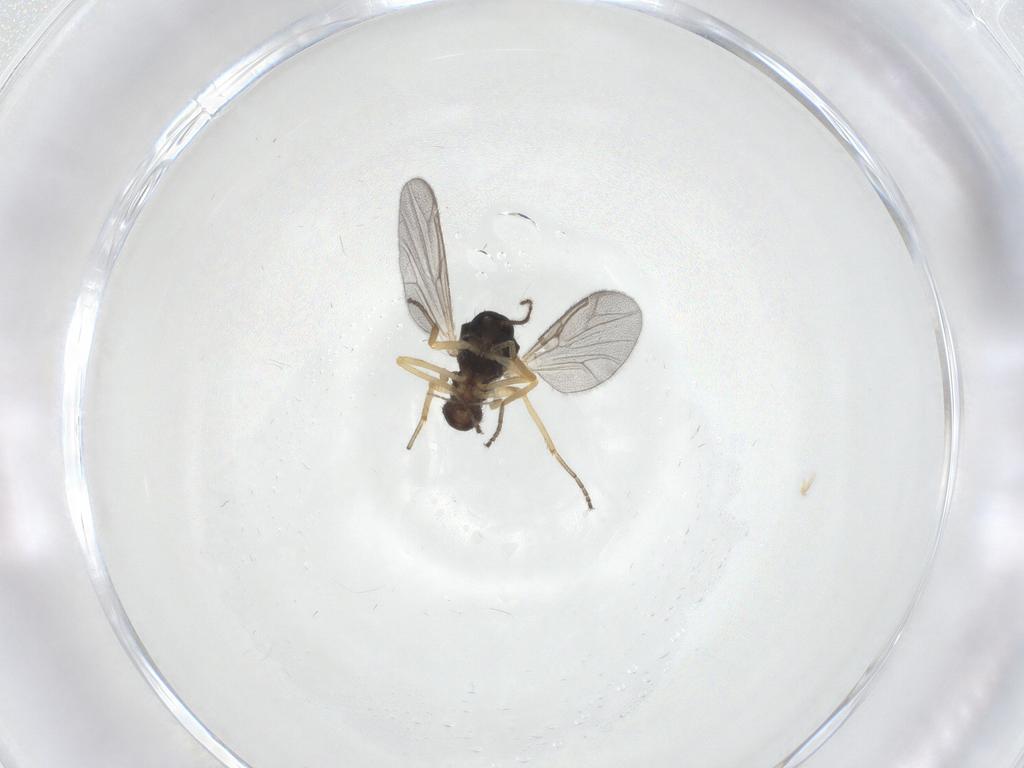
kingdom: Animalia
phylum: Arthropoda
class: Insecta
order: Diptera
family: Ceratopogonidae
